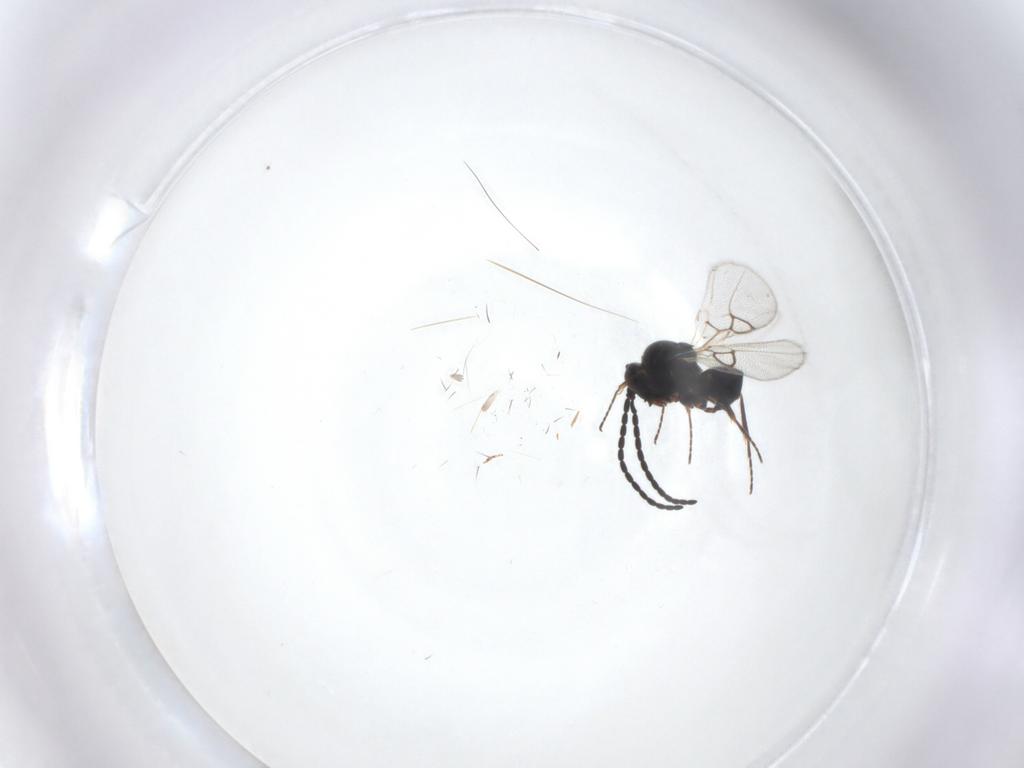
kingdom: Animalia
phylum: Arthropoda
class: Insecta
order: Hymenoptera
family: Figitidae
